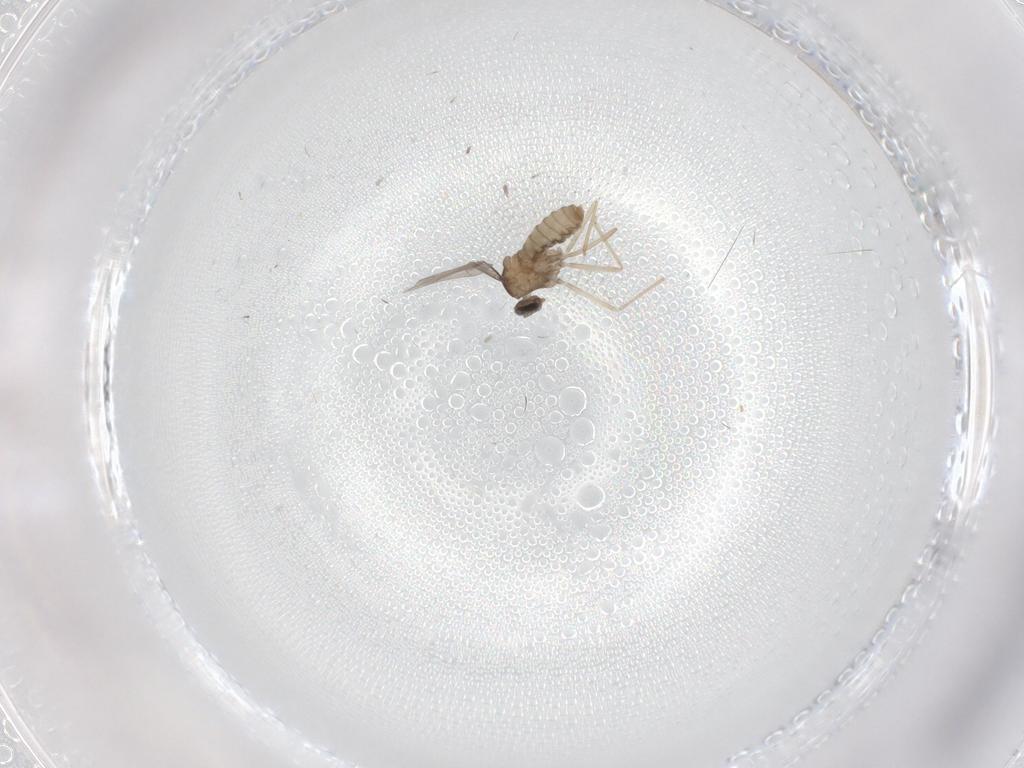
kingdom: Animalia
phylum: Arthropoda
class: Insecta
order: Diptera
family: Cecidomyiidae
